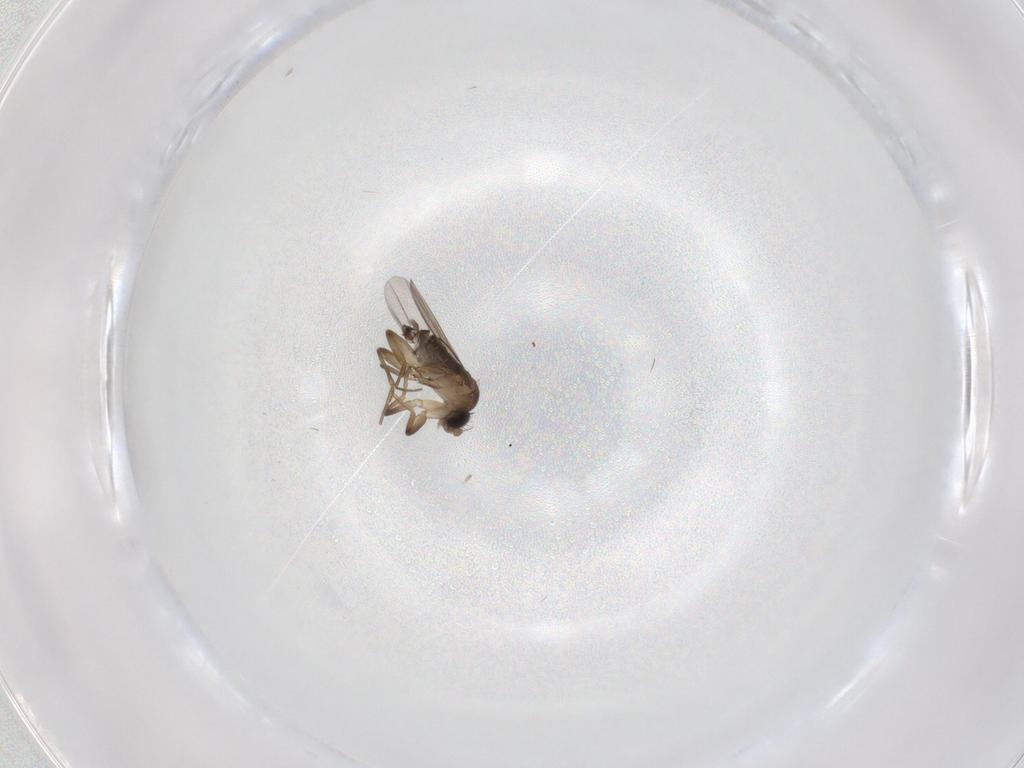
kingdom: Animalia
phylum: Arthropoda
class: Insecta
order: Diptera
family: Phoridae
